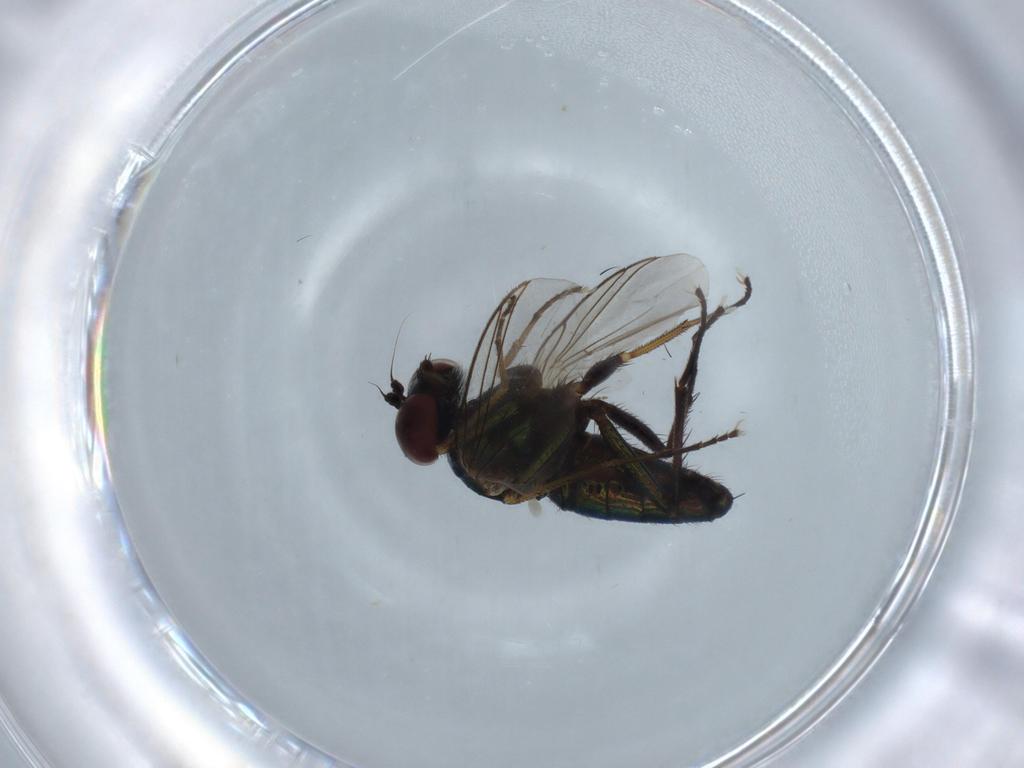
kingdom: Animalia
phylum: Arthropoda
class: Insecta
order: Diptera
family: Dolichopodidae
